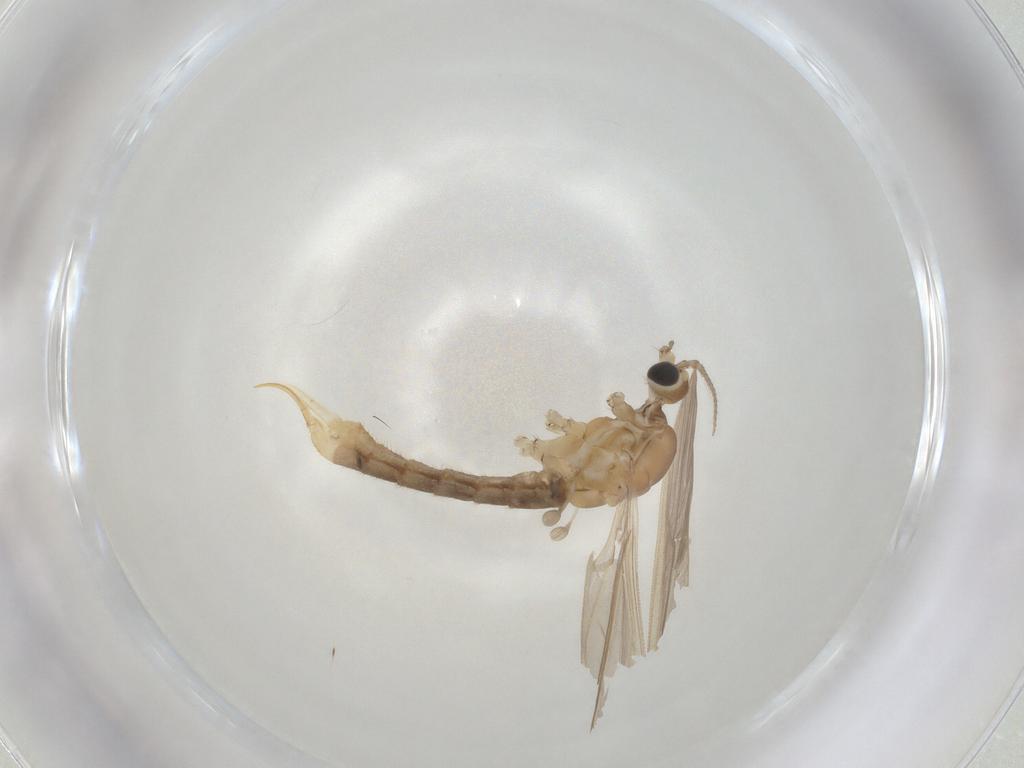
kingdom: Animalia
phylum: Arthropoda
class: Insecta
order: Diptera
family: Limoniidae
